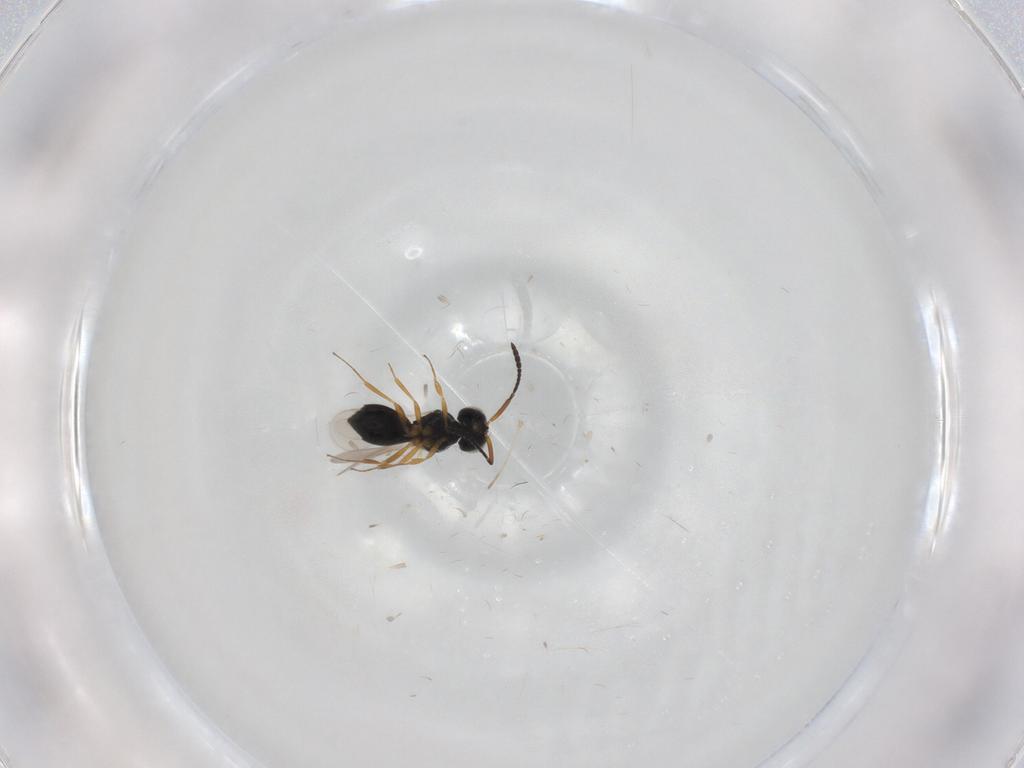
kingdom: Animalia
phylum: Arthropoda
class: Insecta
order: Hymenoptera
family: Scelionidae
